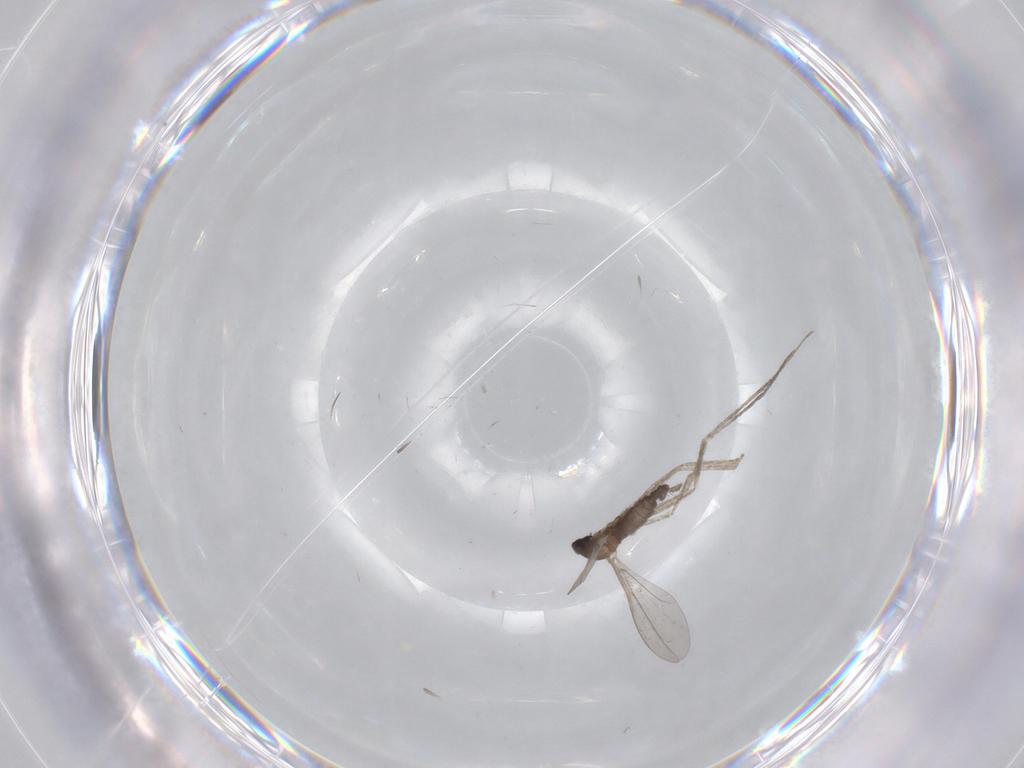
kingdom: Animalia
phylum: Arthropoda
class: Insecta
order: Diptera
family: Cecidomyiidae
